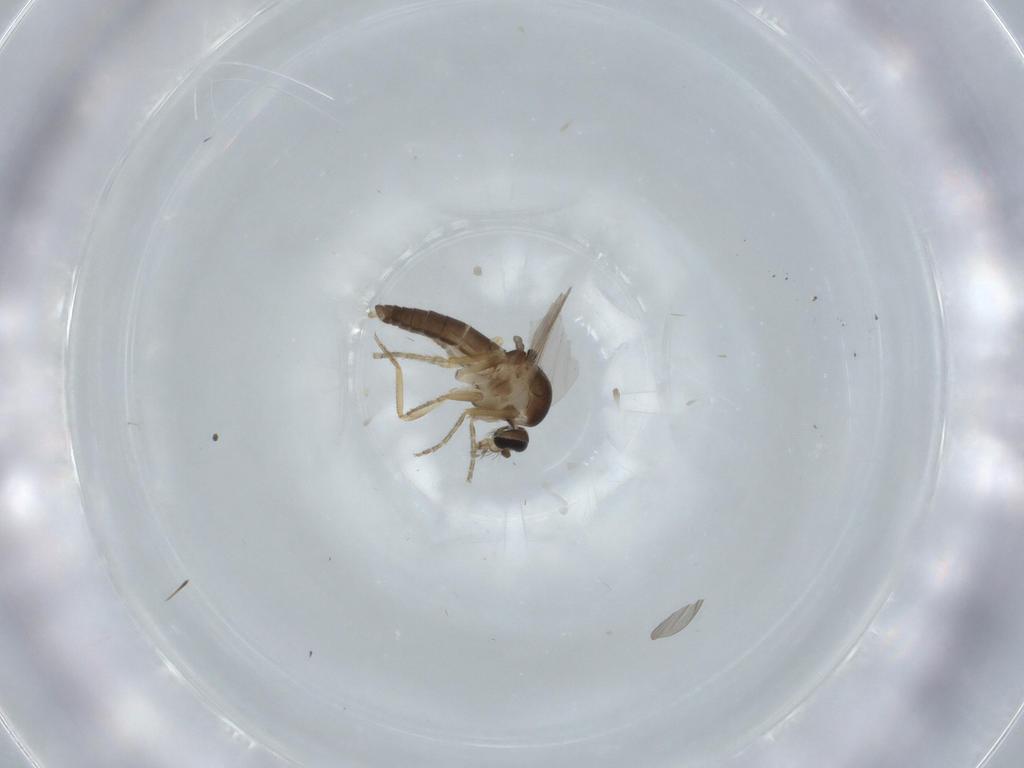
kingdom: Animalia
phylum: Arthropoda
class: Insecta
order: Diptera
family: Ceratopogonidae
